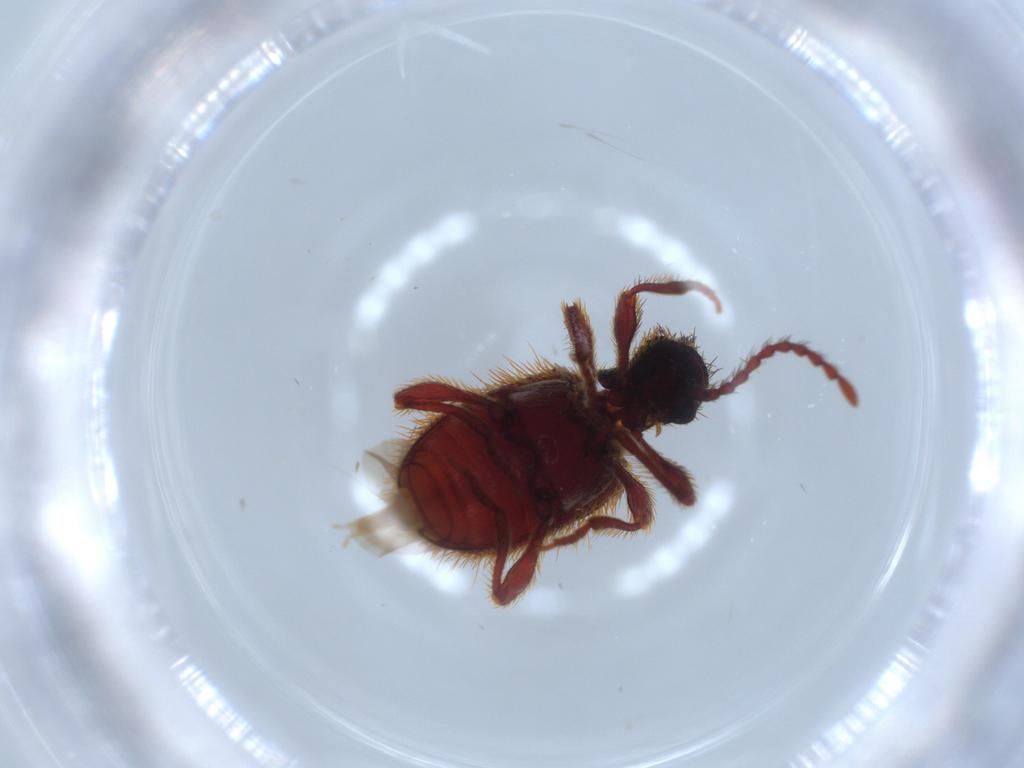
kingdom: Animalia
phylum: Arthropoda
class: Insecta
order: Coleoptera
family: Ptinidae
